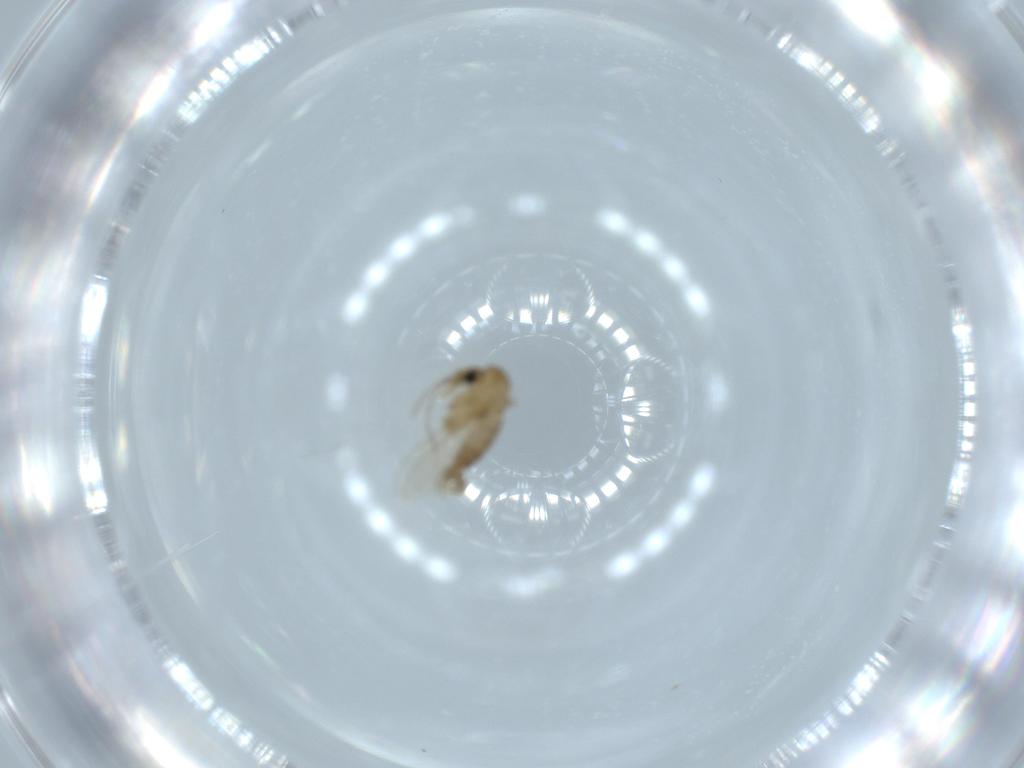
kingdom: Animalia
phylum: Arthropoda
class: Insecta
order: Diptera
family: Psychodidae
